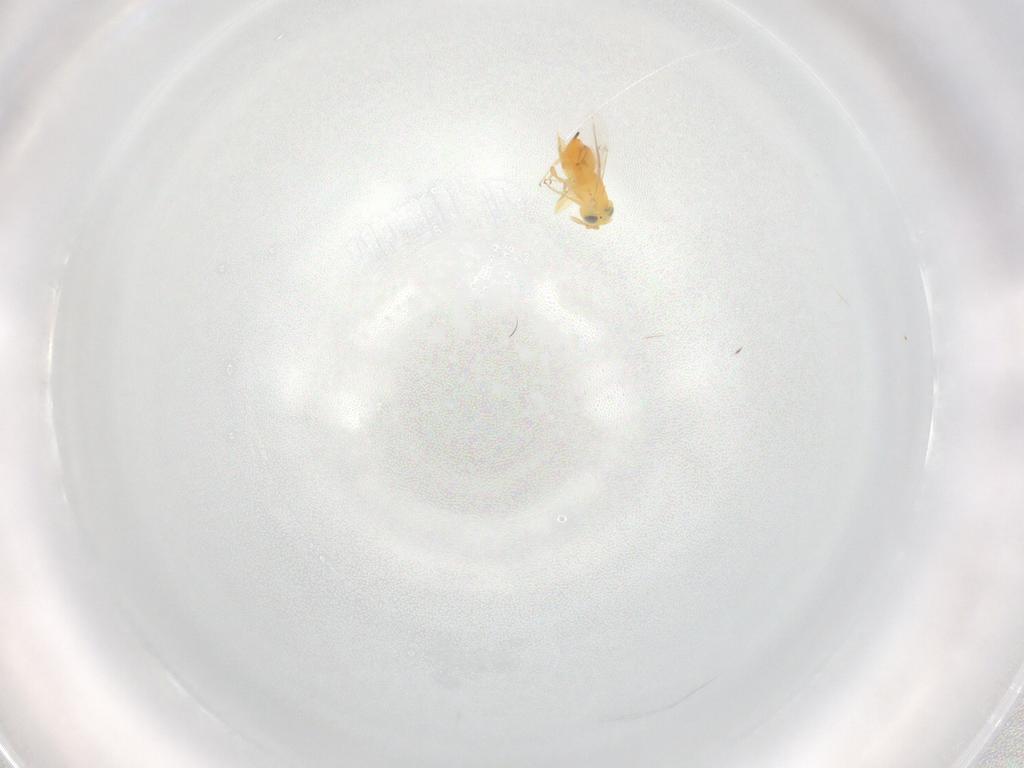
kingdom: Animalia
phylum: Arthropoda
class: Insecta
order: Hymenoptera
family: Encyrtidae
